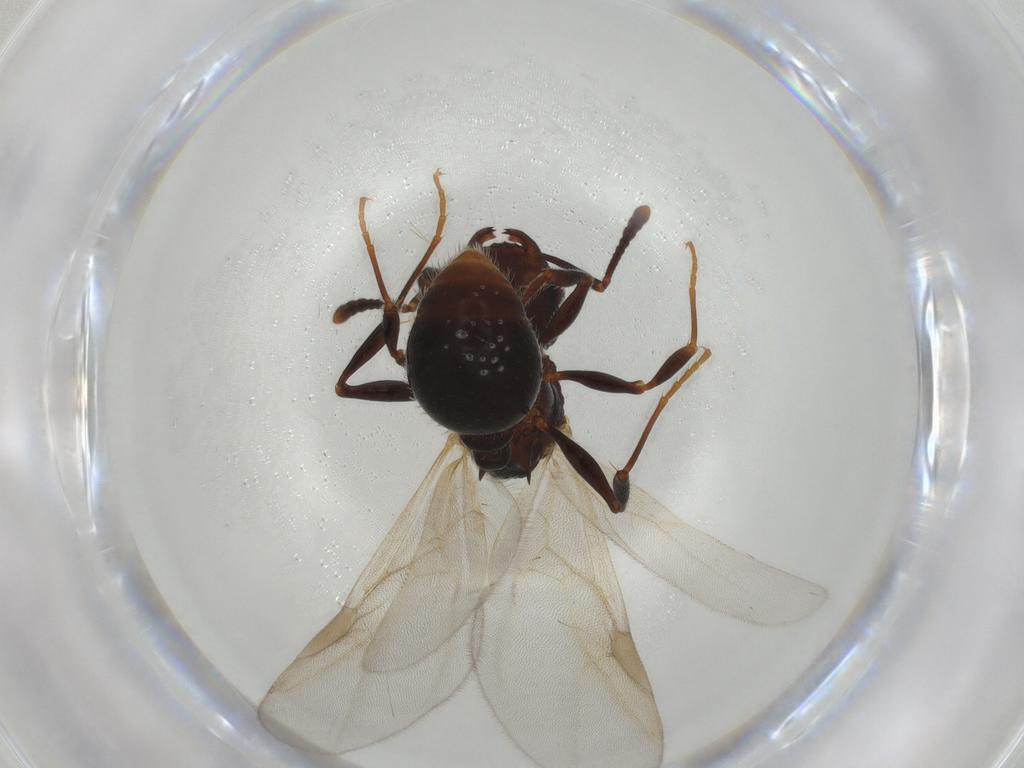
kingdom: Animalia
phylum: Arthropoda
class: Insecta
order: Hymenoptera
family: Formicidae
